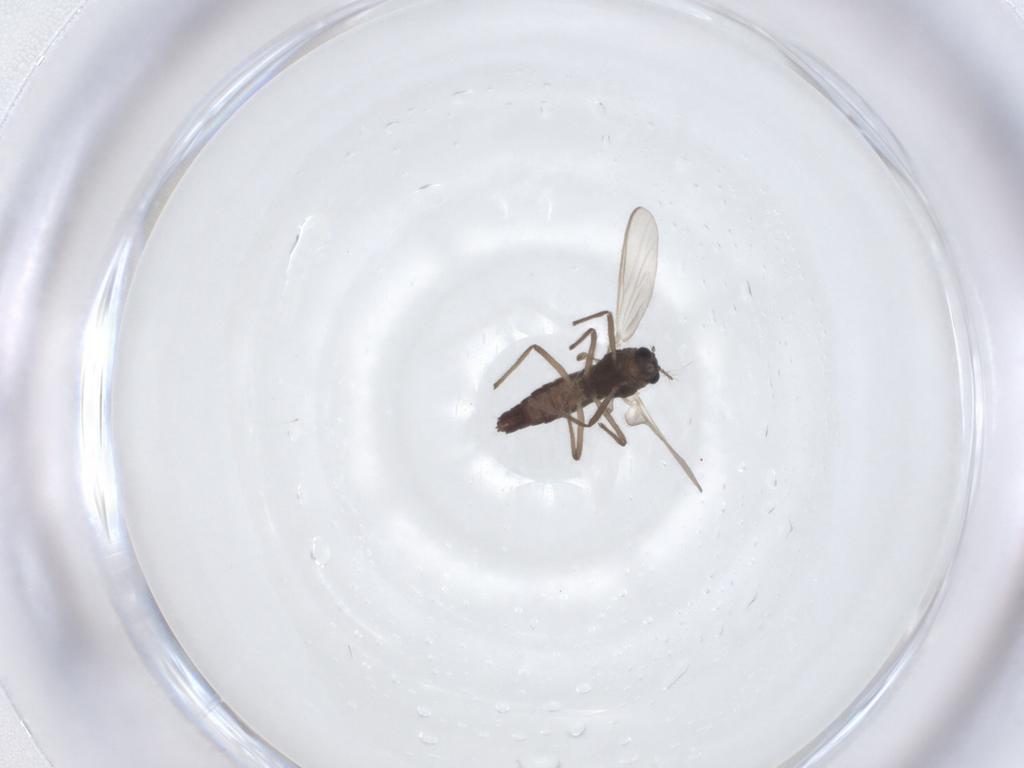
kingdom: Animalia
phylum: Arthropoda
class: Insecta
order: Diptera
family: Chironomidae
